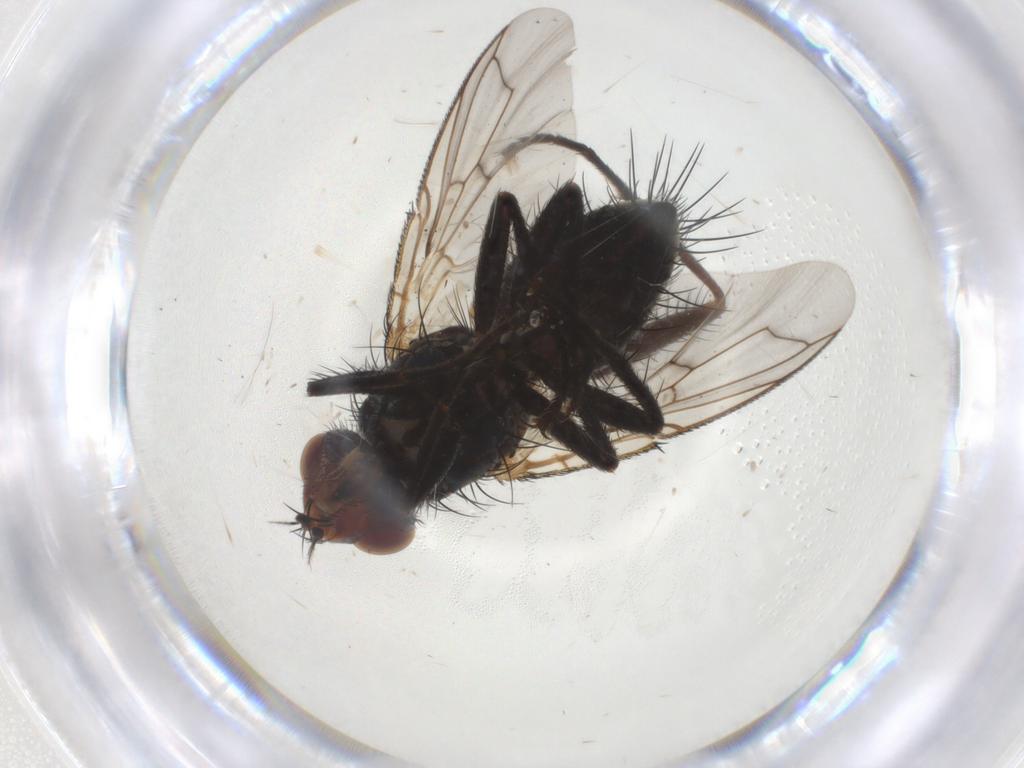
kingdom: Animalia
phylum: Arthropoda
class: Insecta
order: Diptera
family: Tachinidae
